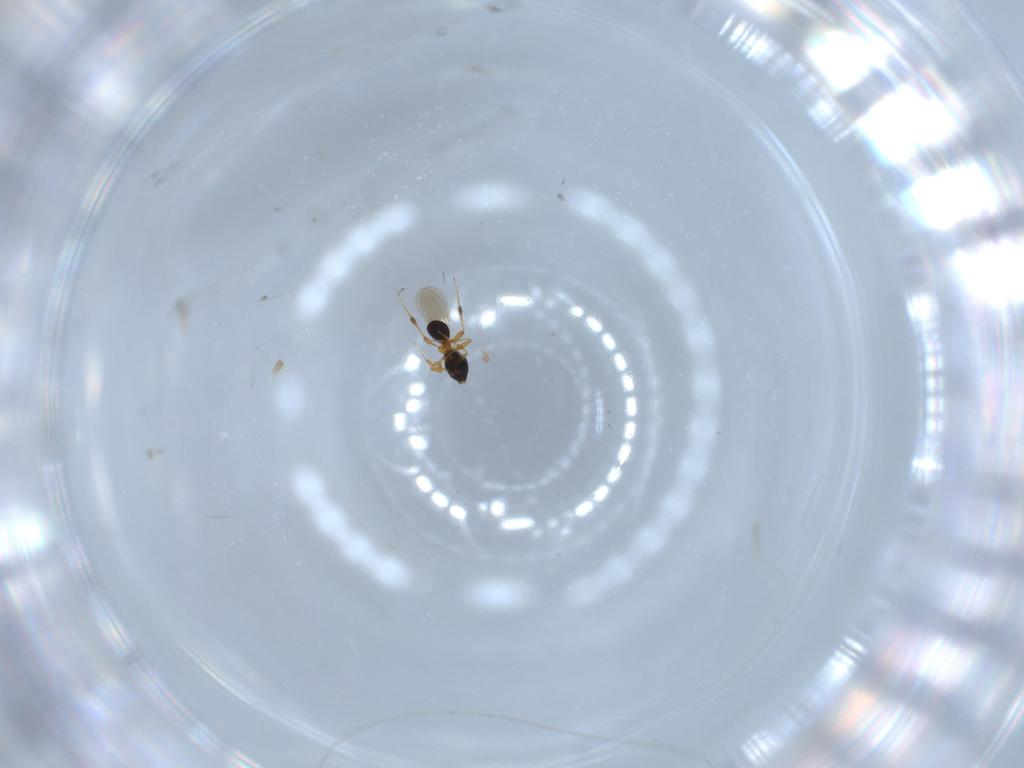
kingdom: Animalia
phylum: Arthropoda
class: Insecta
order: Hymenoptera
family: Platygastridae
